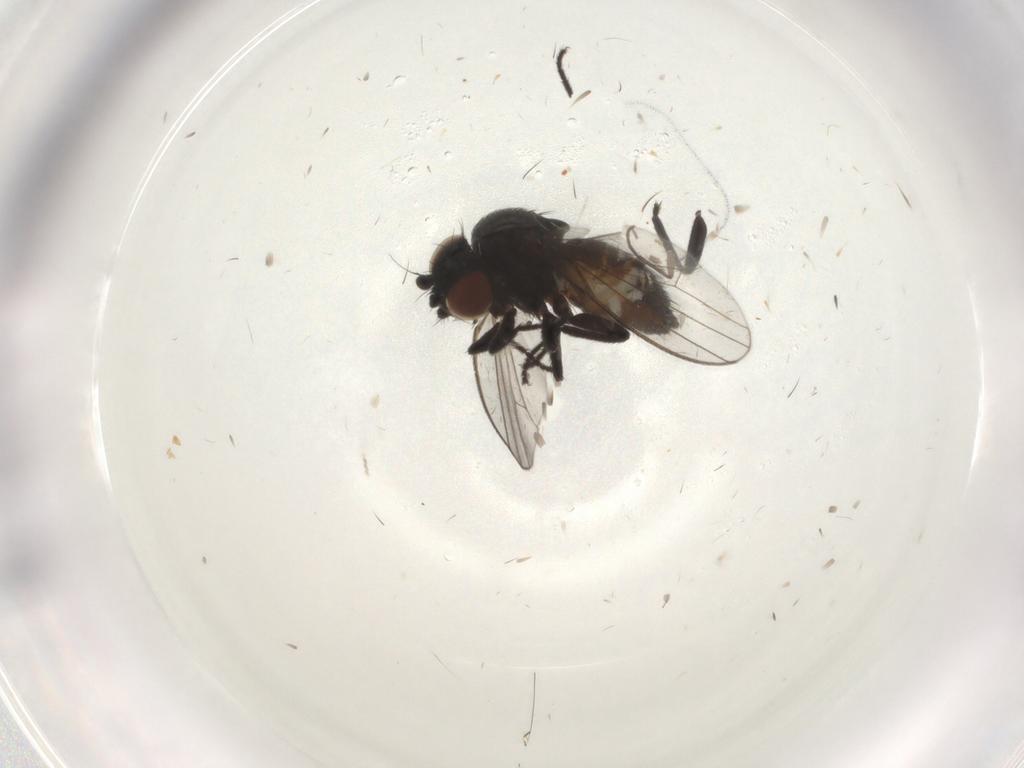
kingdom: Animalia
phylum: Arthropoda
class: Insecta
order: Diptera
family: Milichiidae
